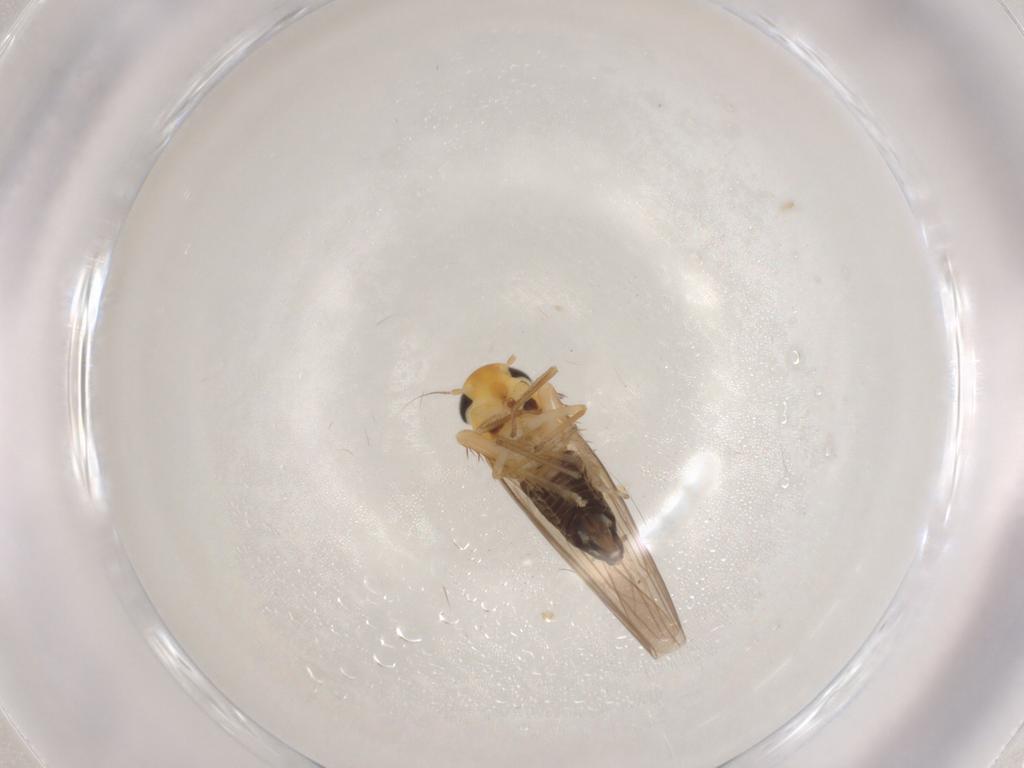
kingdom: Animalia
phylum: Arthropoda
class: Insecta
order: Hemiptera
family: Cicadellidae
